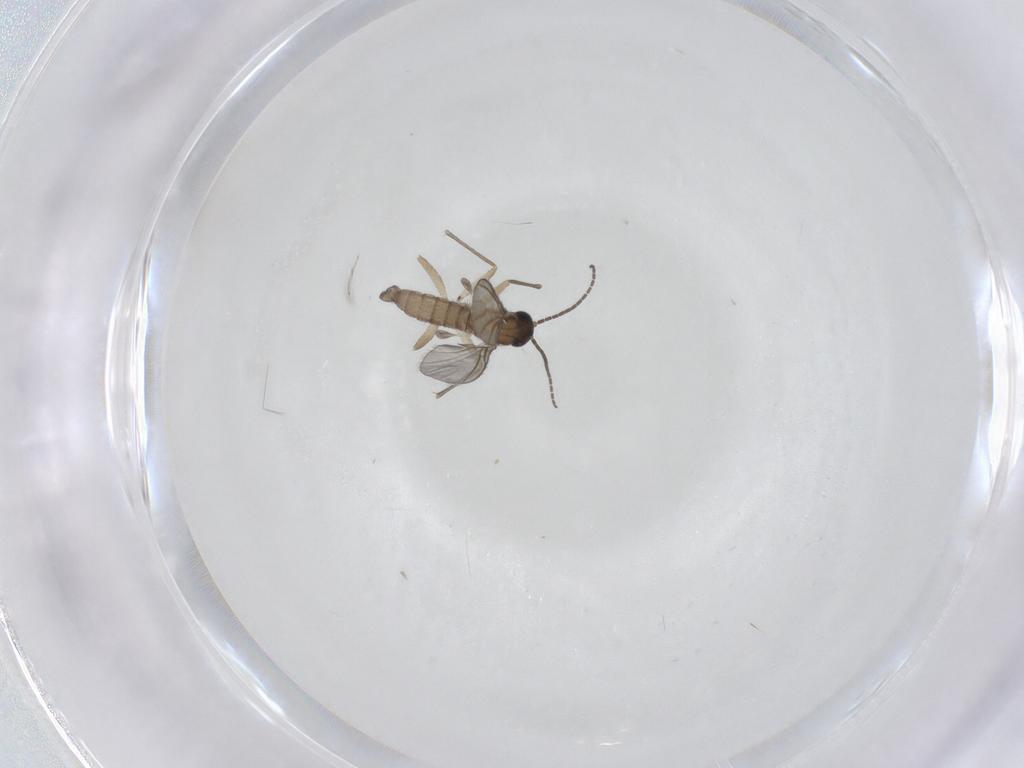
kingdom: Animalia
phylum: Arthropoda
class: Insecta
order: Diptera
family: Sciaridae
